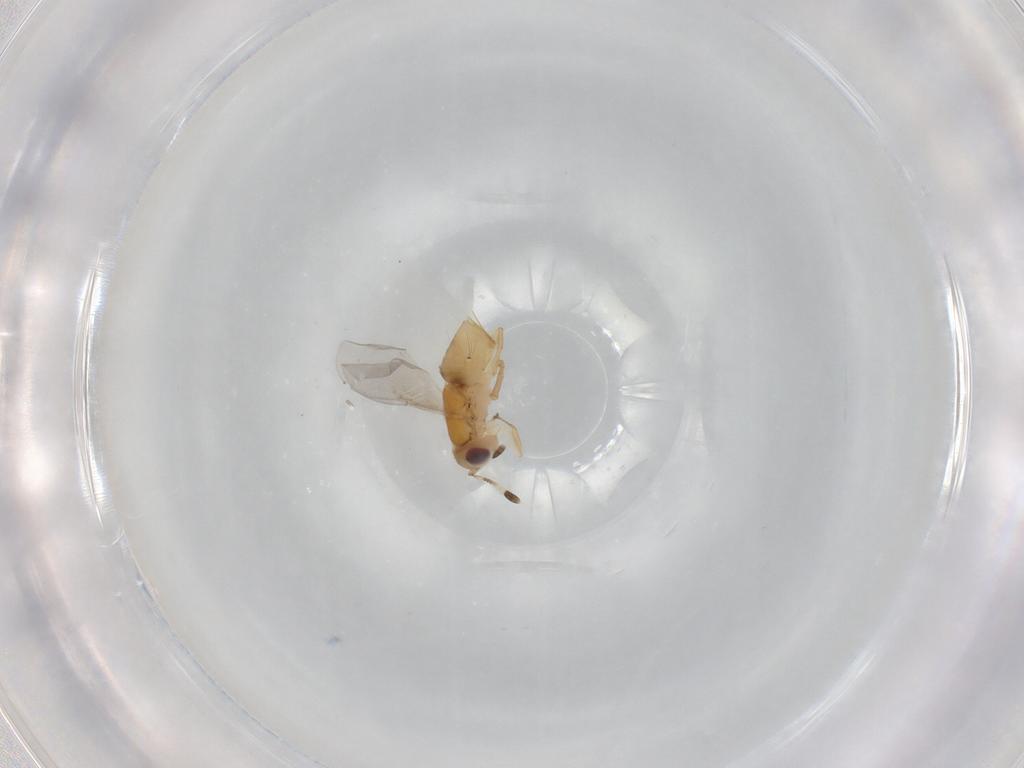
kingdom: Animalia
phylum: Arthropoda
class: Insecta
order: Hymenoptera
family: Encyrtidae
